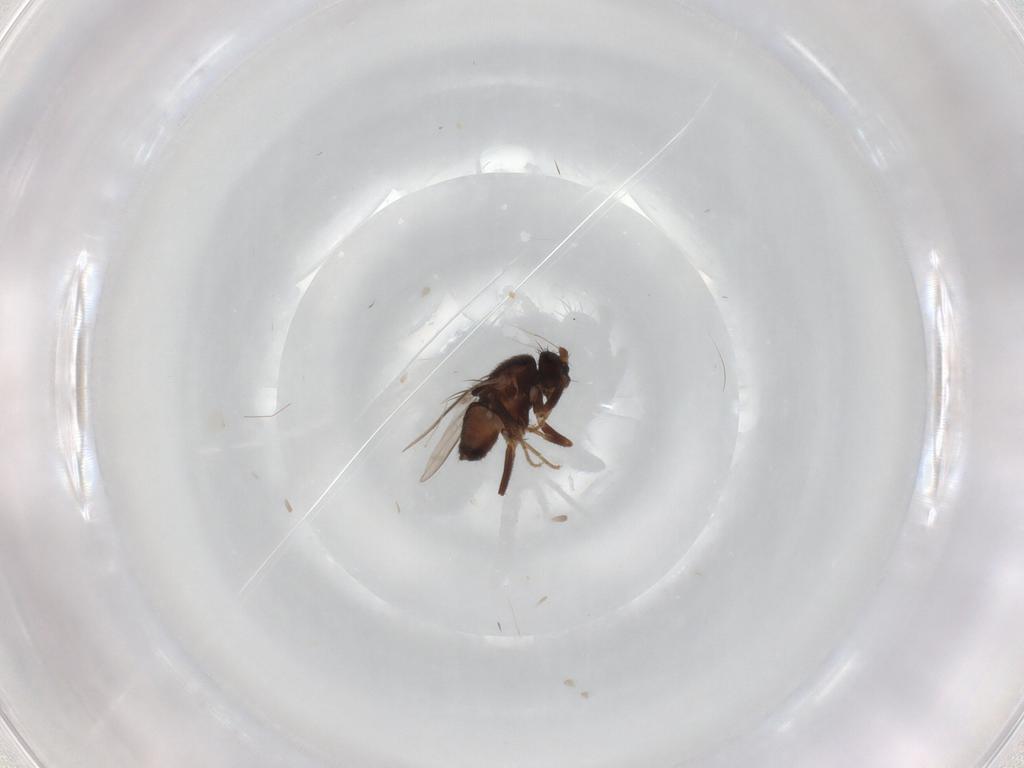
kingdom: Animalia
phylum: Arthropoda
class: Insecta
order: Diptera
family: Sphaeroceridae
